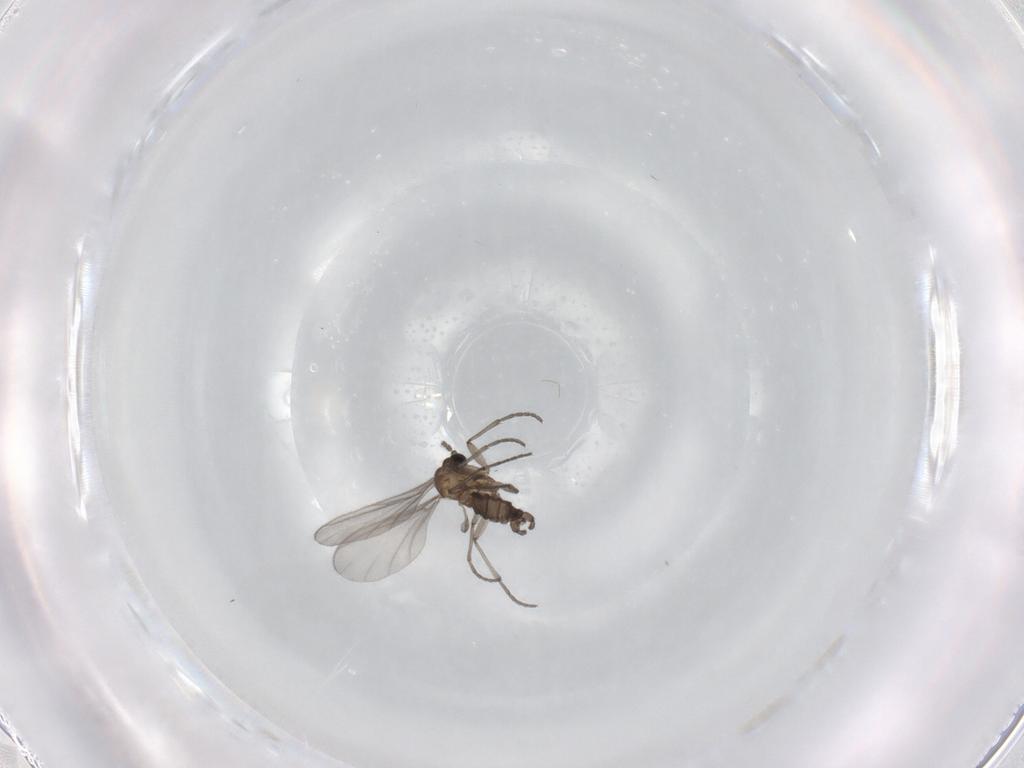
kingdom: Animalia
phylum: Arthropoda
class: Insecta
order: Diptera
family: Sciaridae
